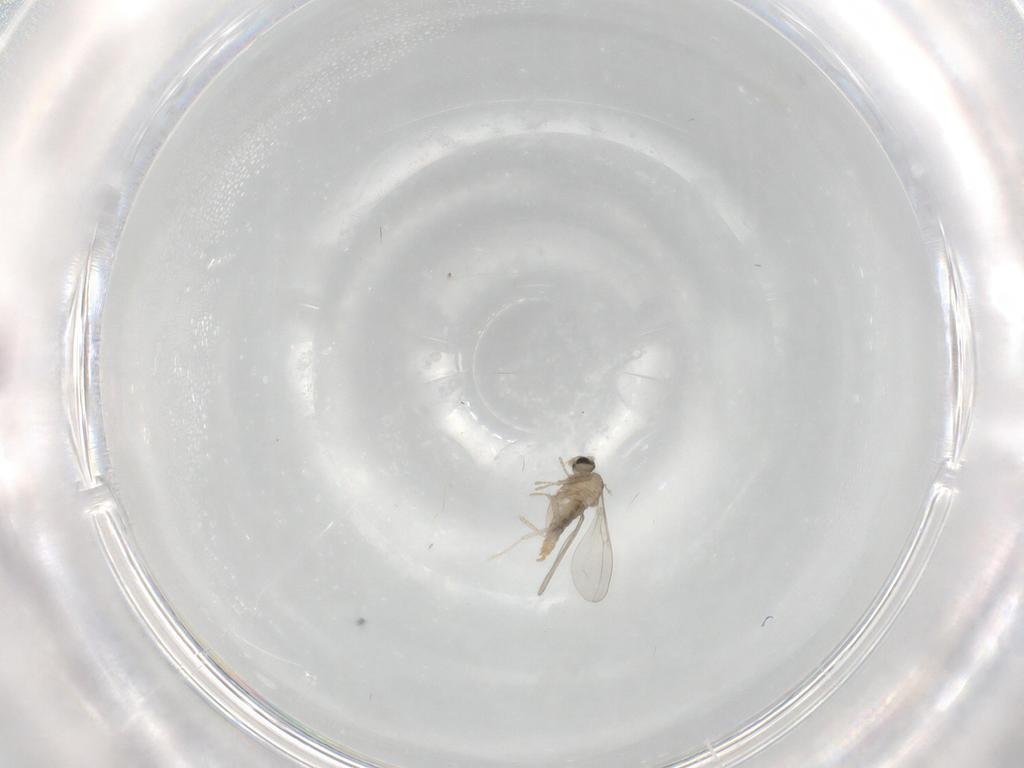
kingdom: Animalia
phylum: Arthropoda
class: Insecta
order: Diptera
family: Cecidomyiidae
